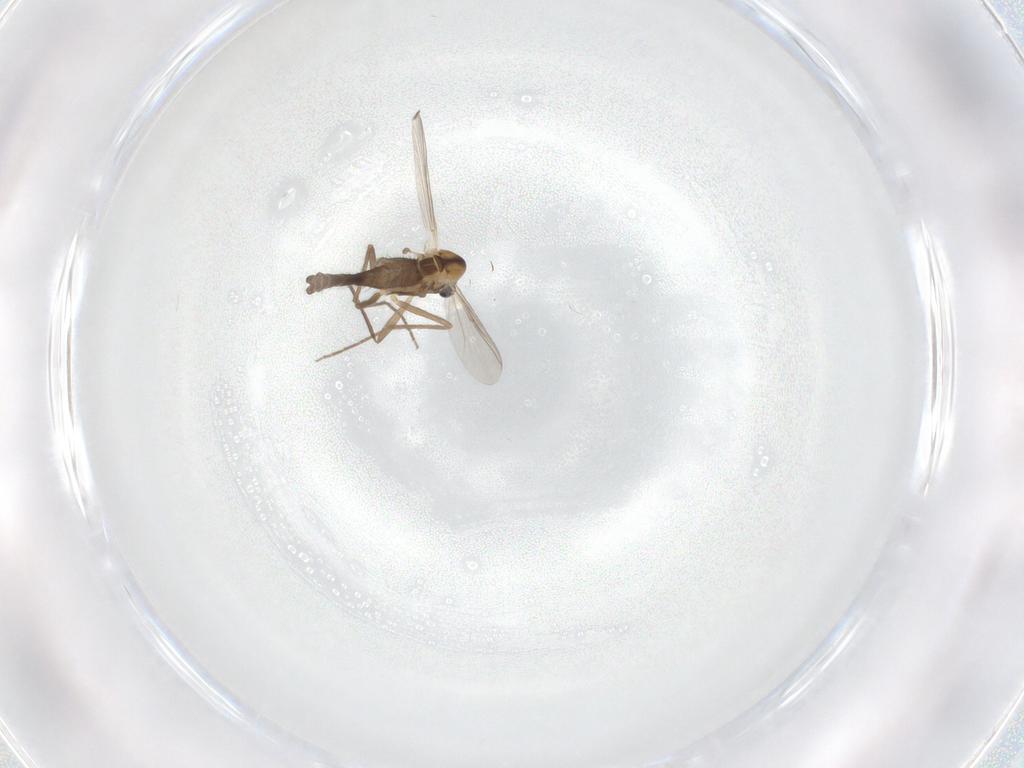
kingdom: Animalia
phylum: Arthropoda
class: Insecta
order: Diptera
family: Chironomidae
